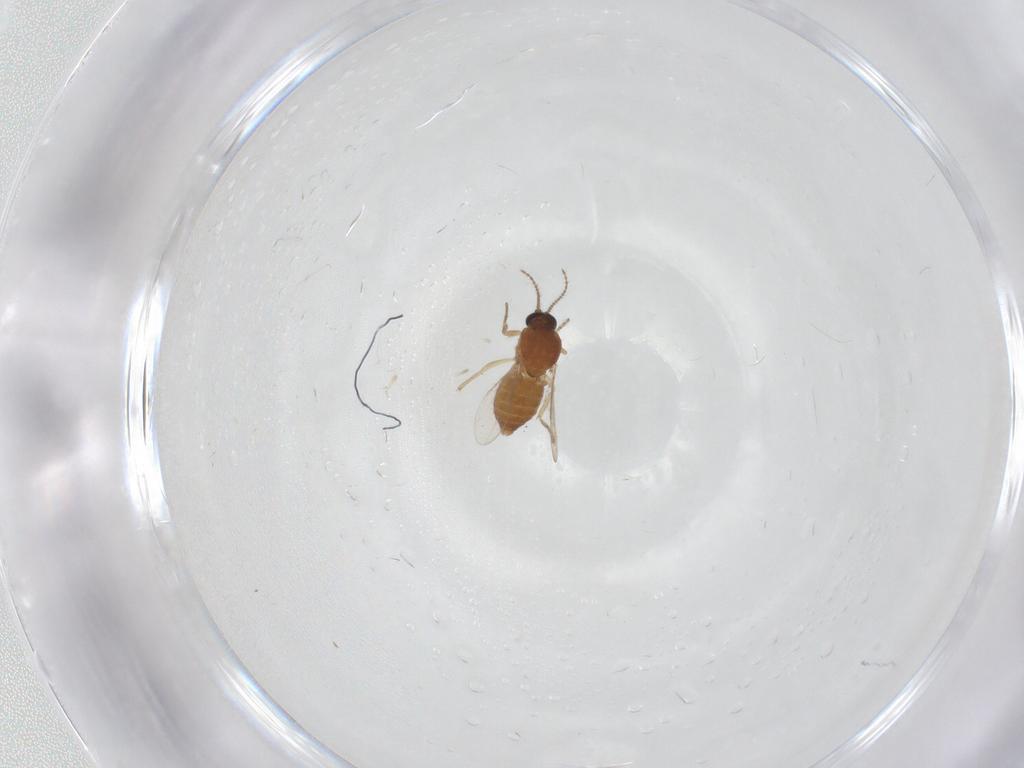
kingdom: Animalia
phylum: Arthropoda
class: Insecta
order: Diptera
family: Ceratopogonidae
